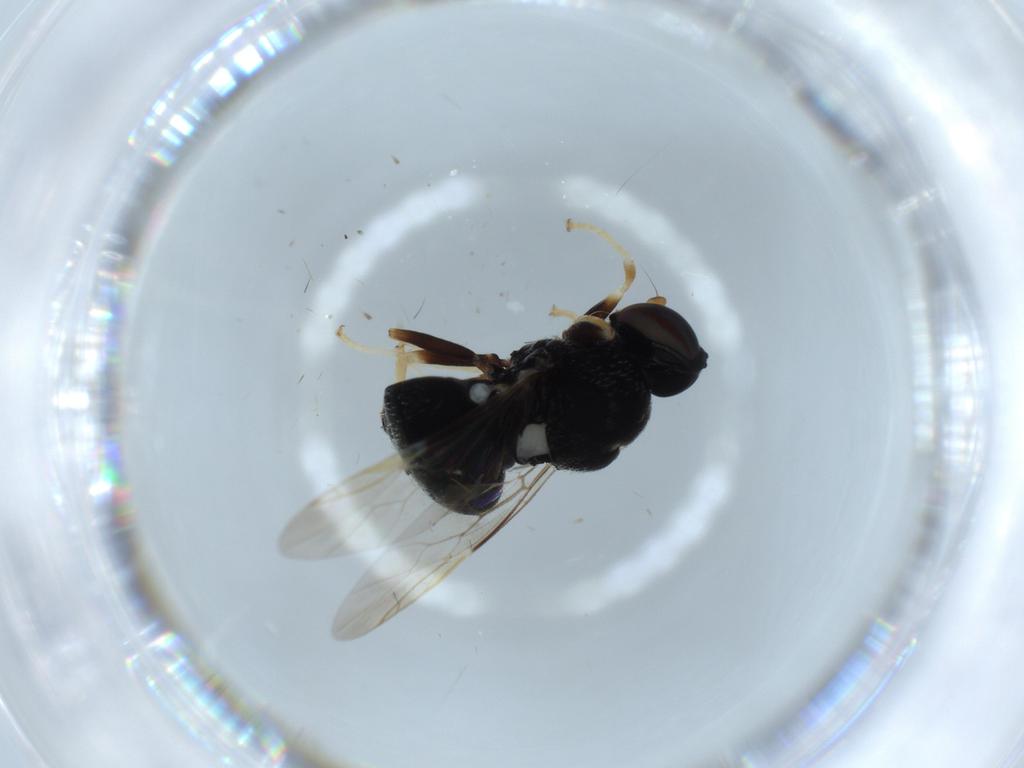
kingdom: Animalia
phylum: Arthropoda
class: Insecta
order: Diptera
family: Stratiomyidae
